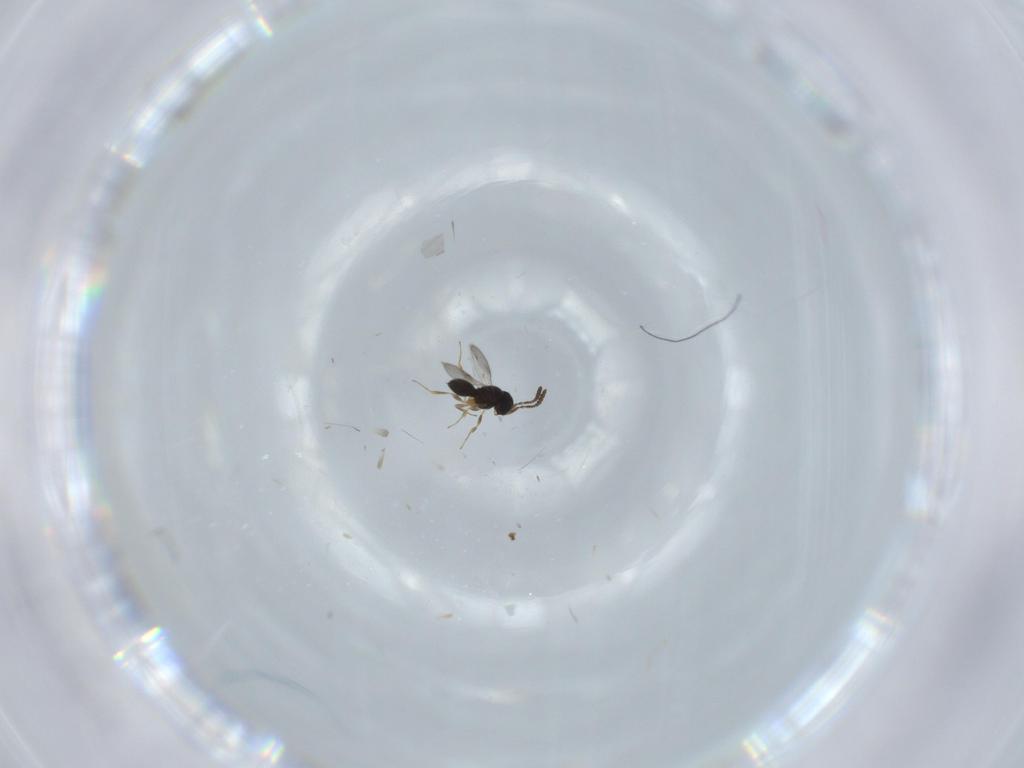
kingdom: Animalia
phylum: Arthropoda
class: Insecta
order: Hymenoptera
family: Scelionidae
